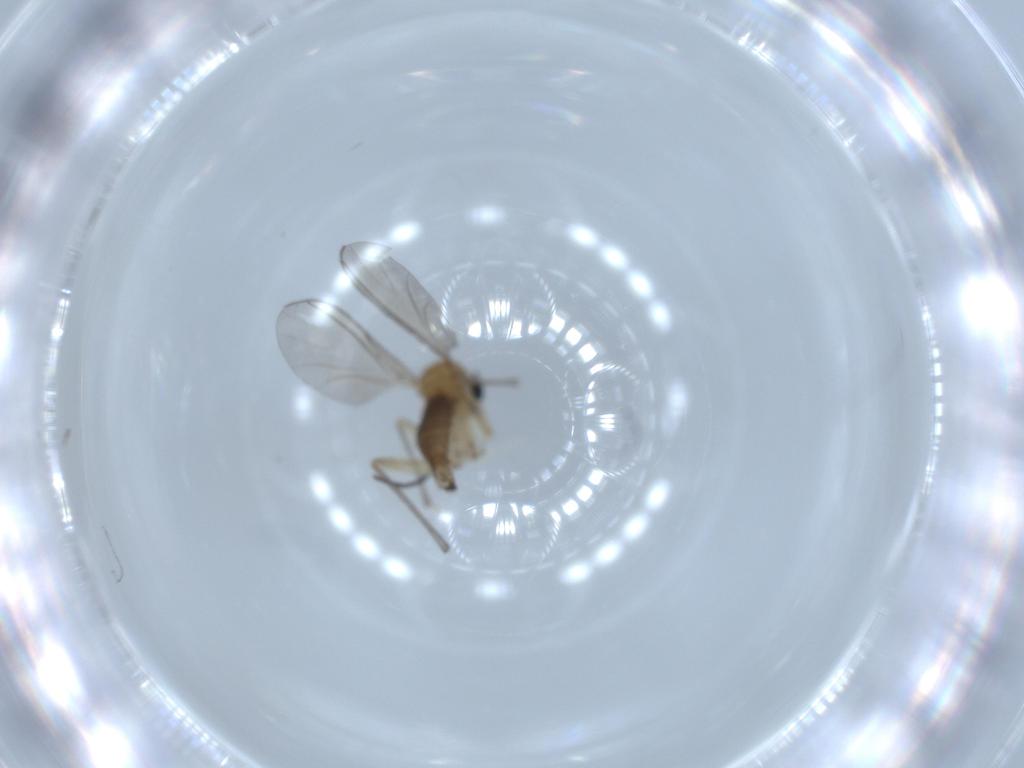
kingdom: Animalia
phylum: Arthropoda
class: Insecta
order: Diptera
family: Sciaridae
